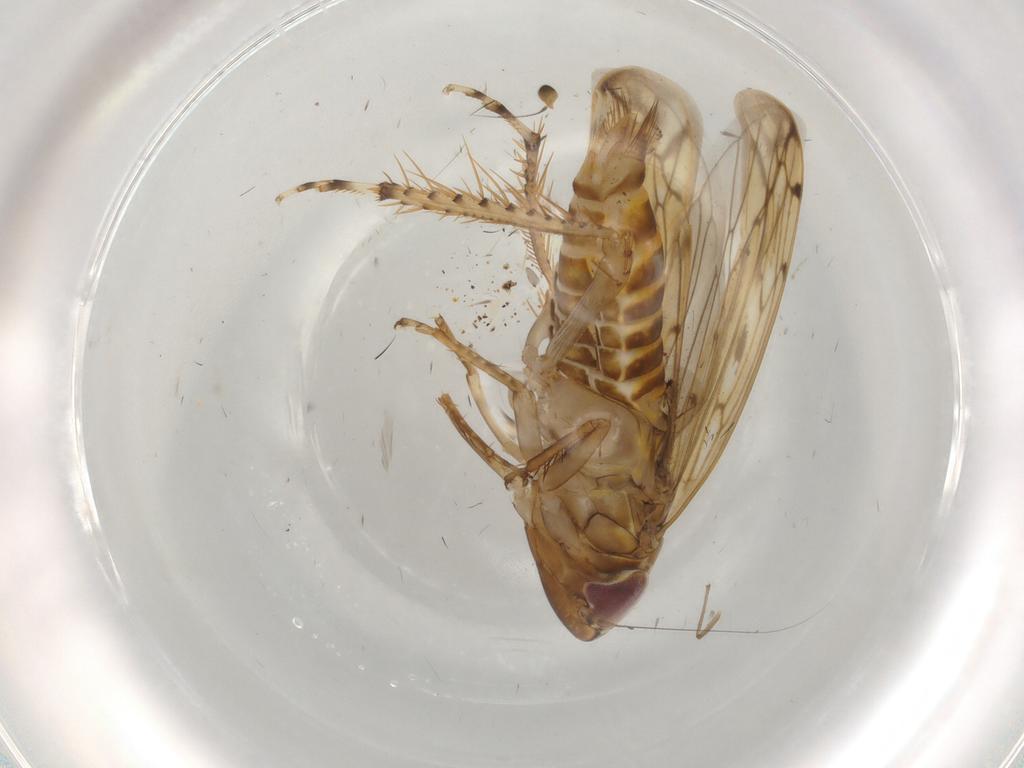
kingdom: Animalia
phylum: Arthropoda
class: Insecta
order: Hemiptera
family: Cicadellidae
